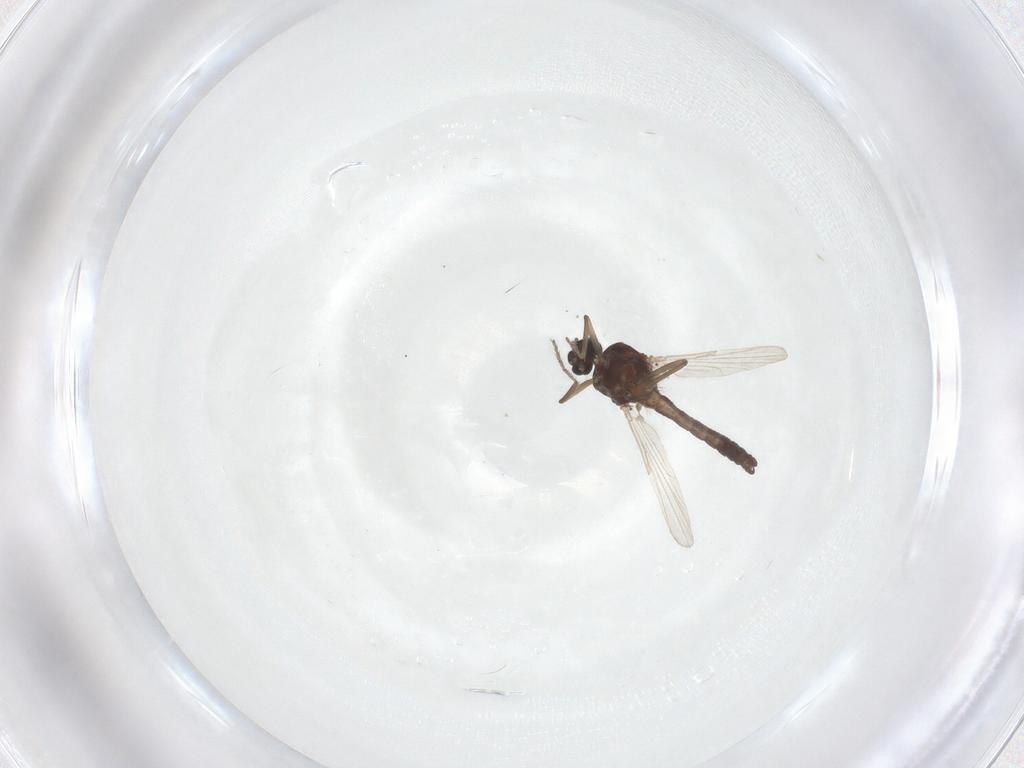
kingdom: Animalia
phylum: Arthropoda
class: Insecta
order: Diptera
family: Ceratopogonidae
